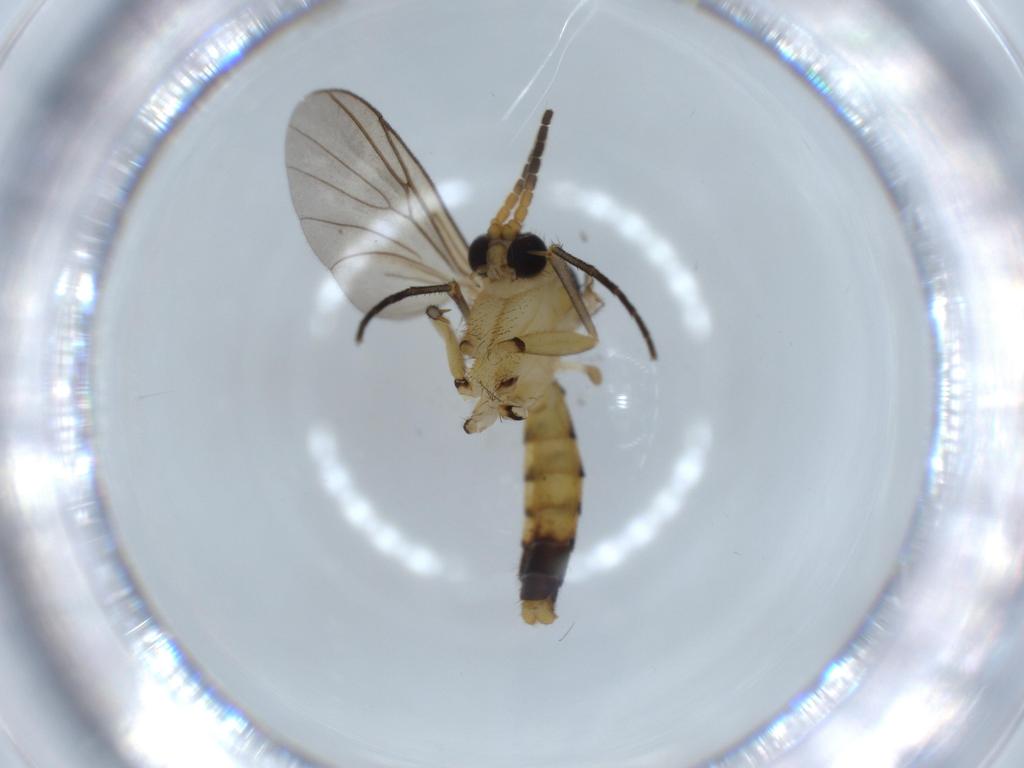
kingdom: Animalia
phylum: Arthropoda
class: Insecta
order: Diptera
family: Psychodidae
